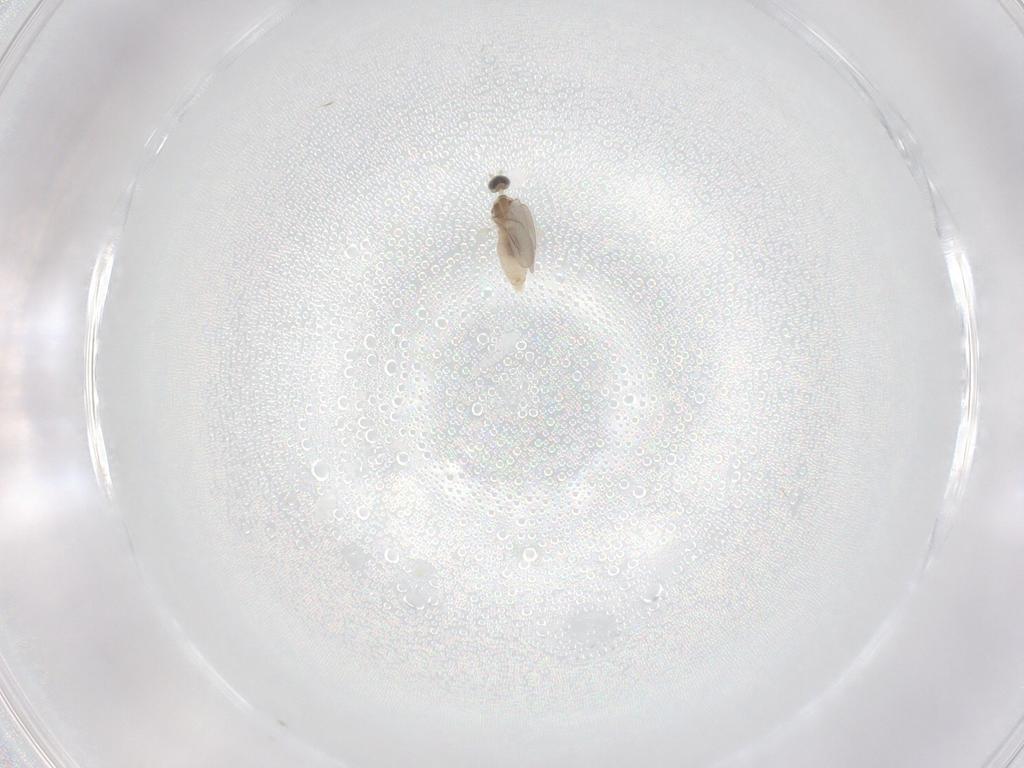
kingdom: Animalia
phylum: Arthropoda
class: Insecta
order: Diptera
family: Cecidomyiidae
